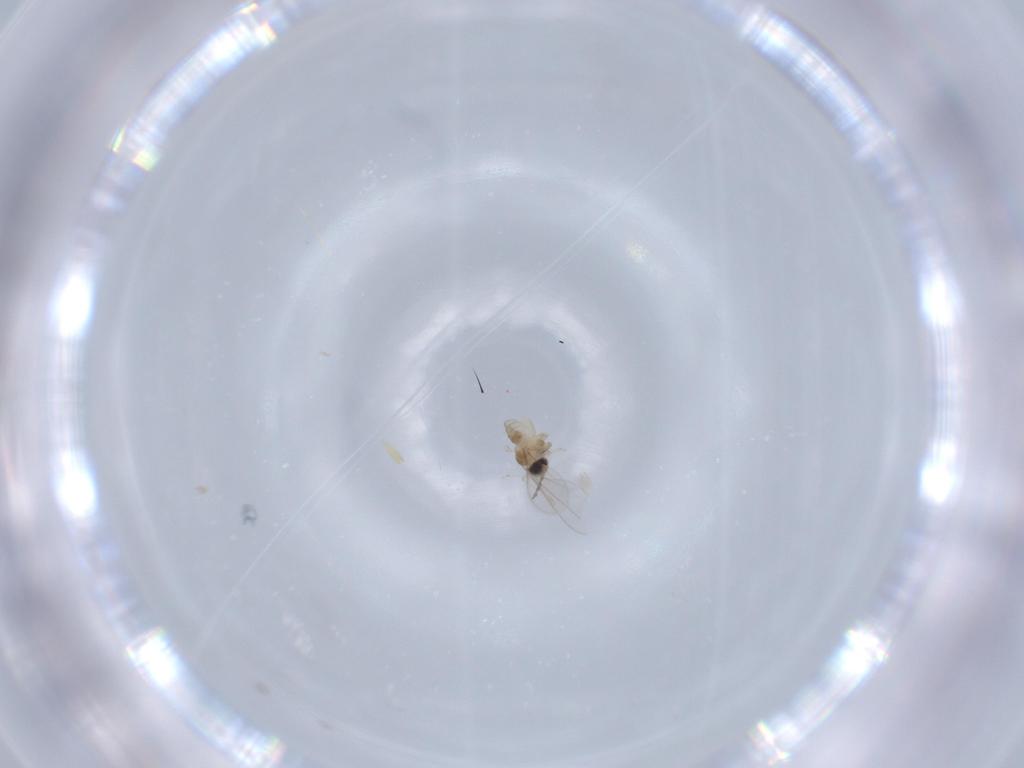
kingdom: Animalia
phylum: Arthropoda
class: Insecta
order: Diptera
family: Cecidomyiidae
